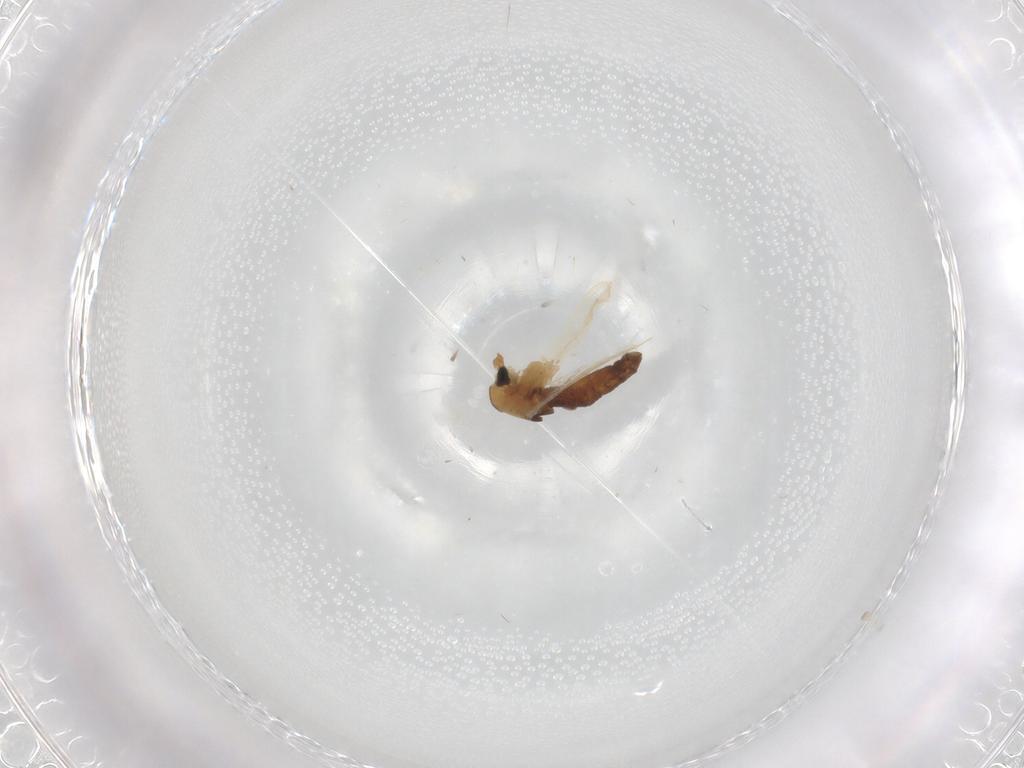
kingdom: Animalia
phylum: Arthropoda
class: Insecta
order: Diptera
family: Chironomidae
